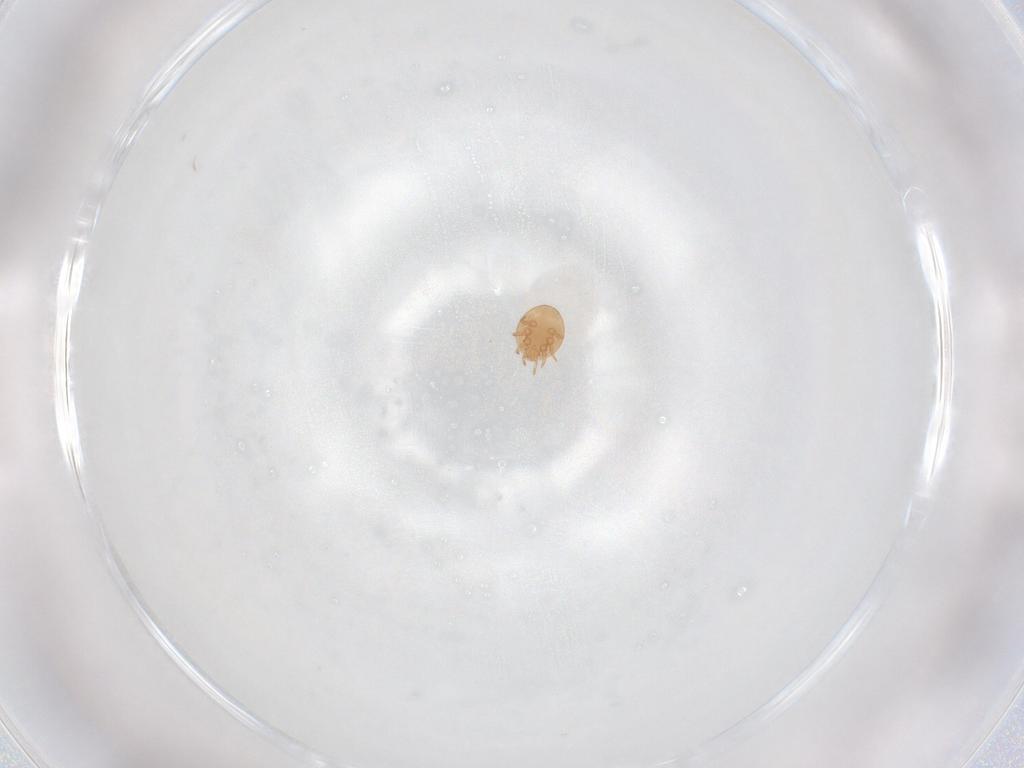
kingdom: Animalia
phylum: Arthropoda
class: Arachnida
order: Mesostigmata
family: Trematuridae
